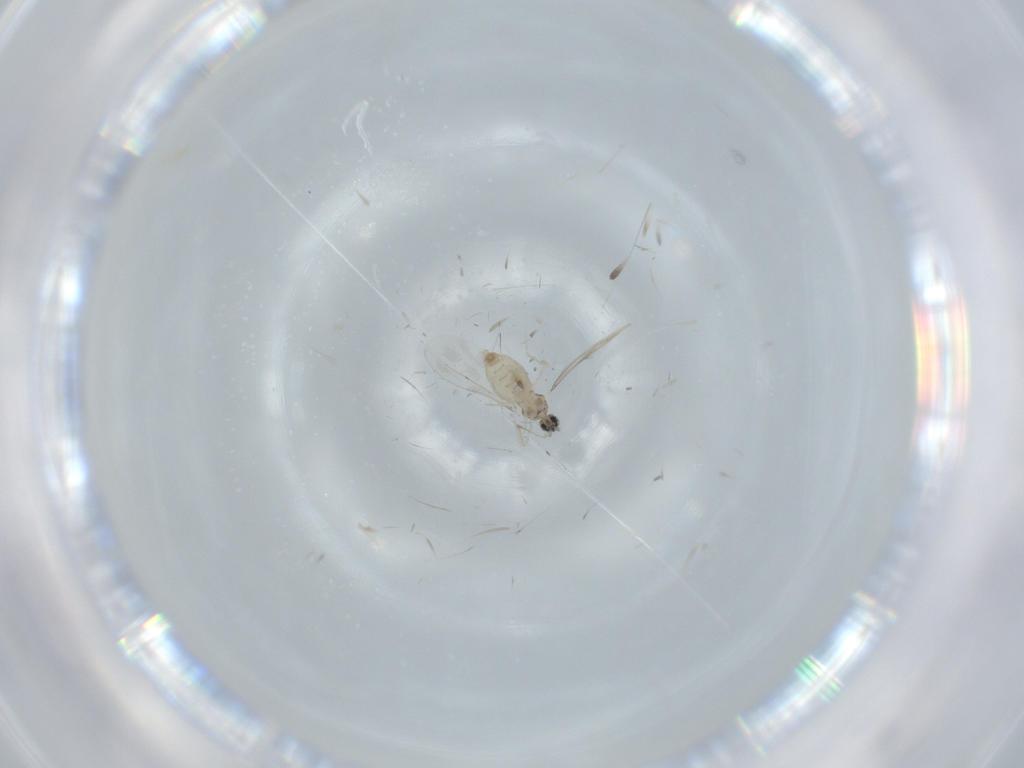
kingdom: Animalia
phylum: Arthropoda
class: Insecta
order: Diptera
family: Cecidomyiidae
